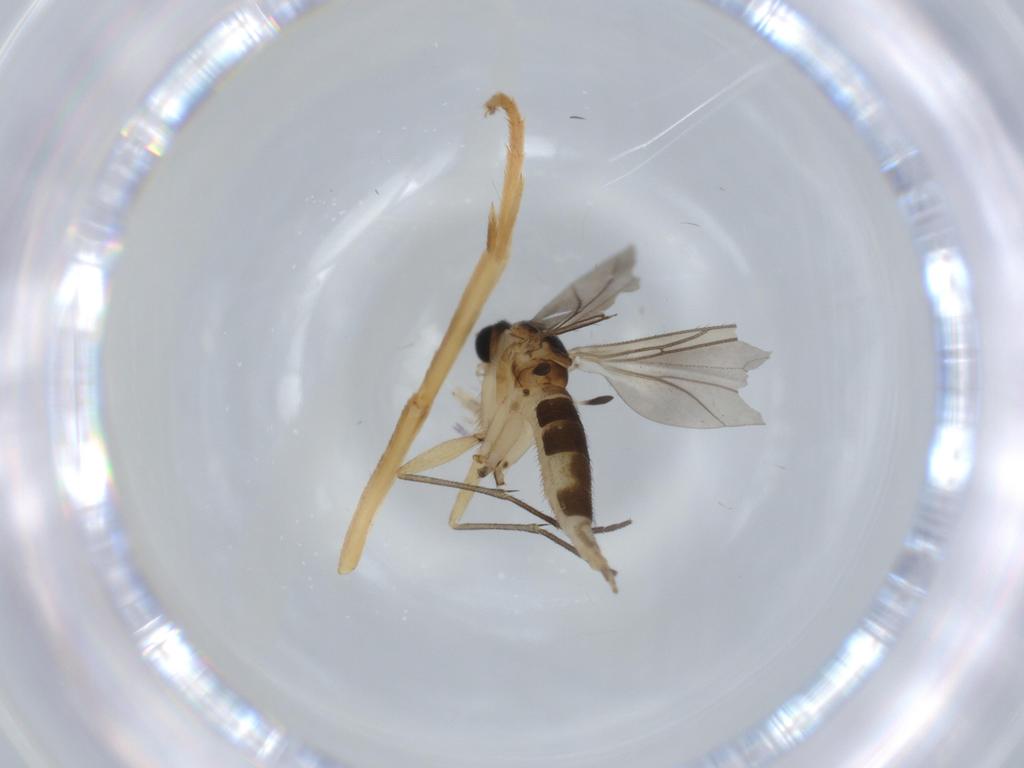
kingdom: Animalia
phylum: Arthropoda
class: Insecta
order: Diptera
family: Sciaridae
